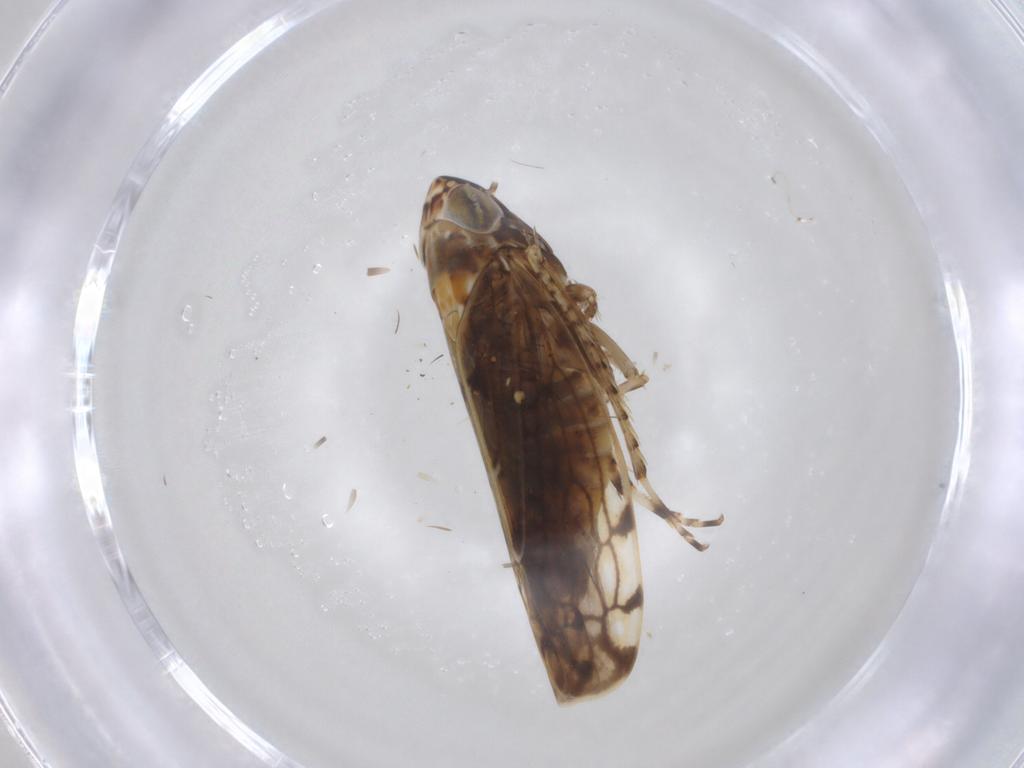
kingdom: Animalia
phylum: Arthropoda
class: Insecta
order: Hemiptera
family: Cicadellidae
